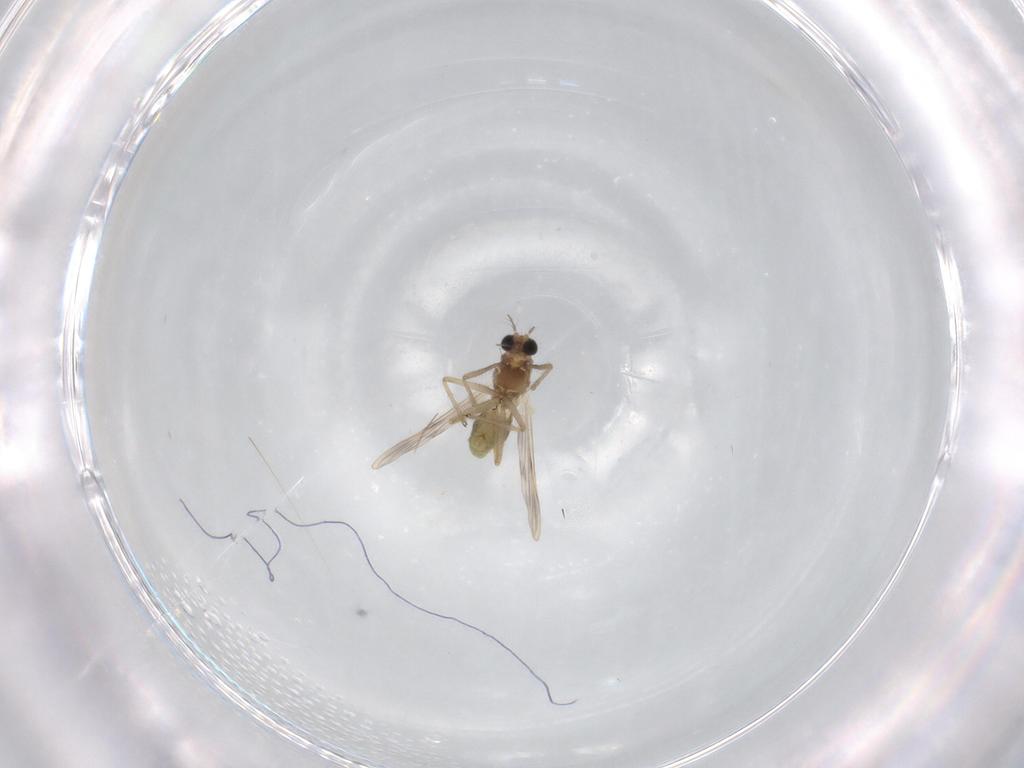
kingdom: Animalia
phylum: Arthropoda
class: Insecta
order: Diptera
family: Chironomidae
